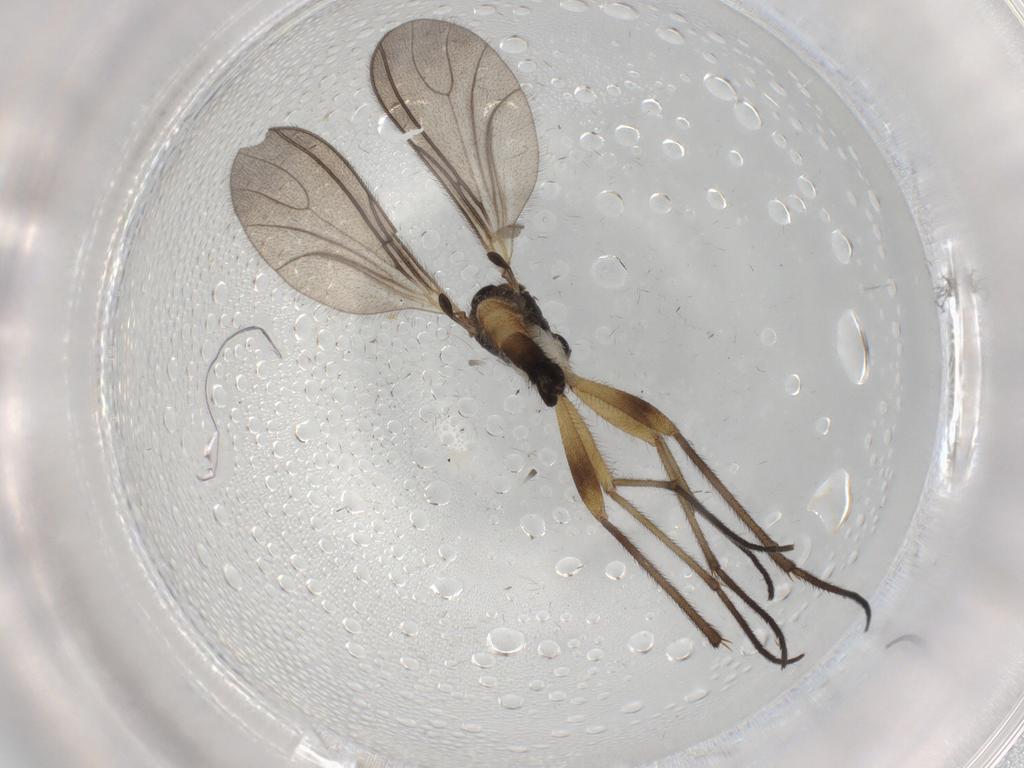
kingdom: Animalia
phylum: Arthropoda
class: Insecta
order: Diptera
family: Sciaridae
